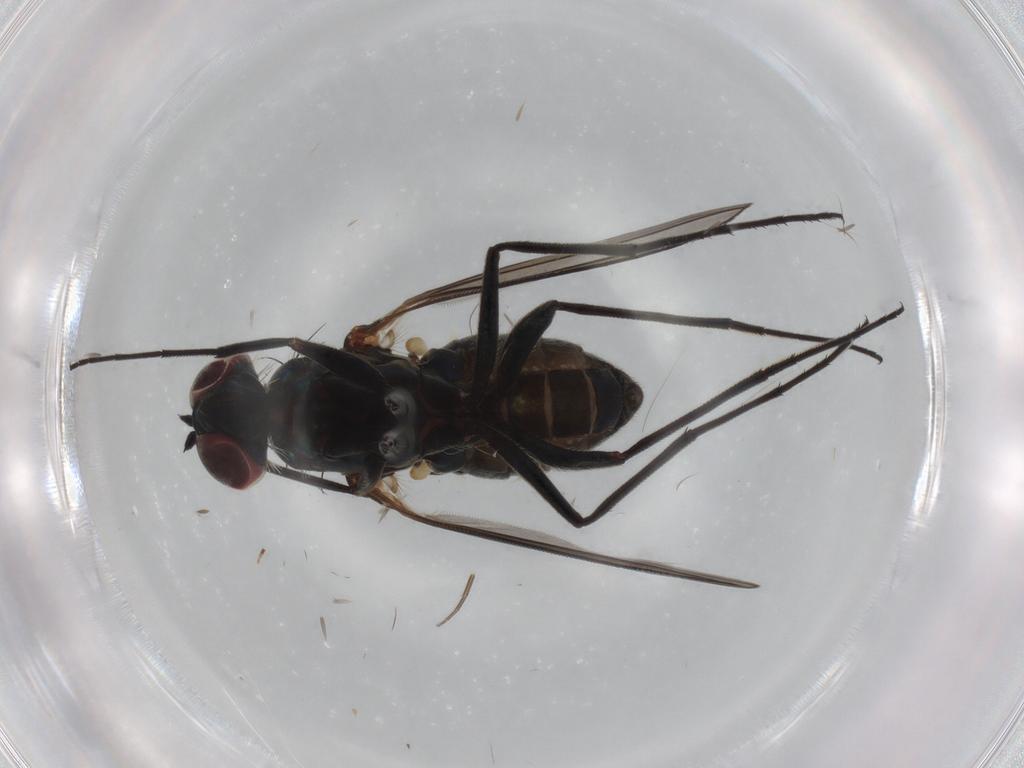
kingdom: Animalia
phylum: Arthropoda
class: Insecta
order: Diptera
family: Dolichopodidae
